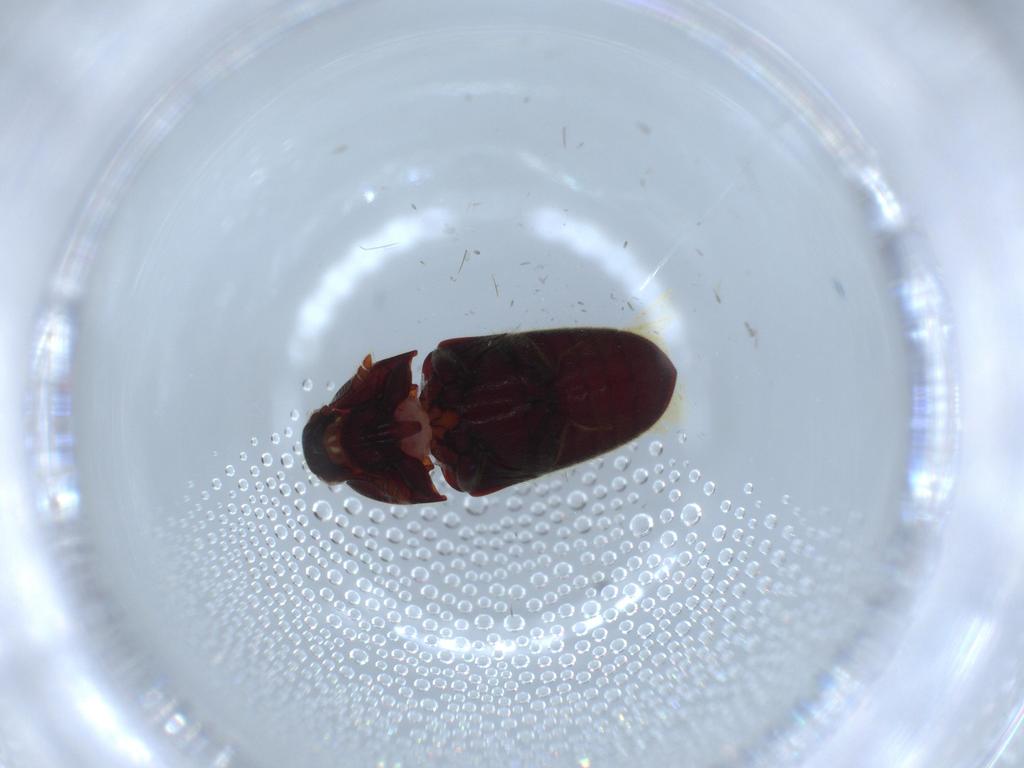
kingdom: Animalia
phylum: Arthropoda
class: Insecta
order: Coleoptera
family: Throscidae
